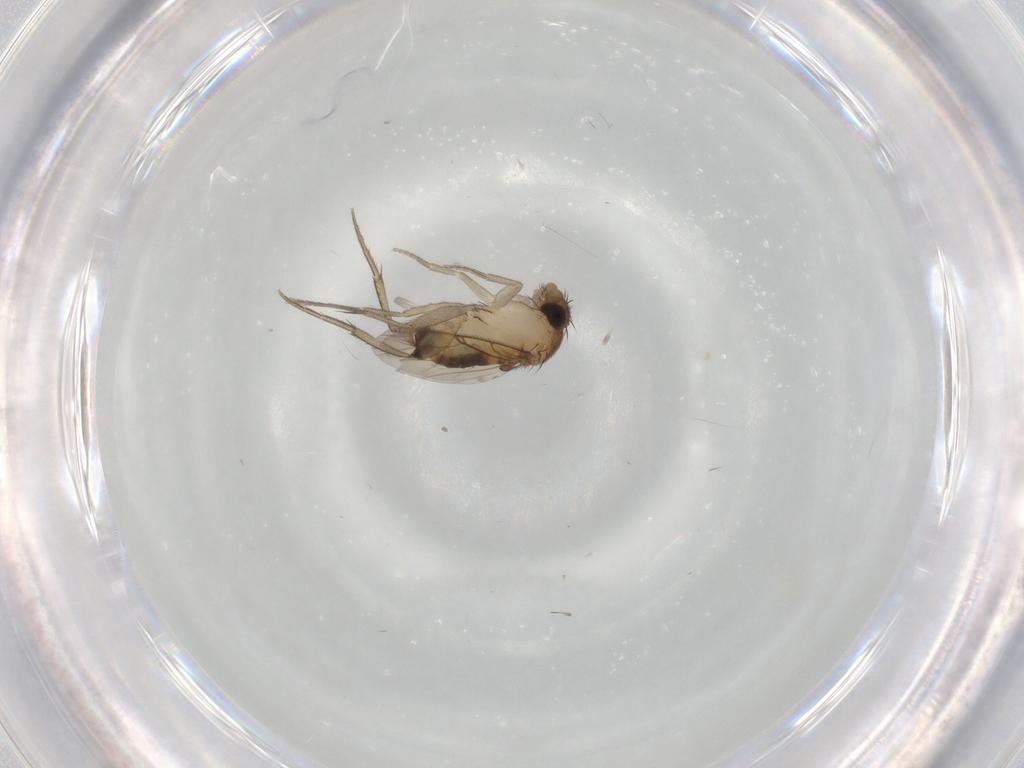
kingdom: Animalia
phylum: Arthropoda
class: Insecta
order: Diptera
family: Phoridae
